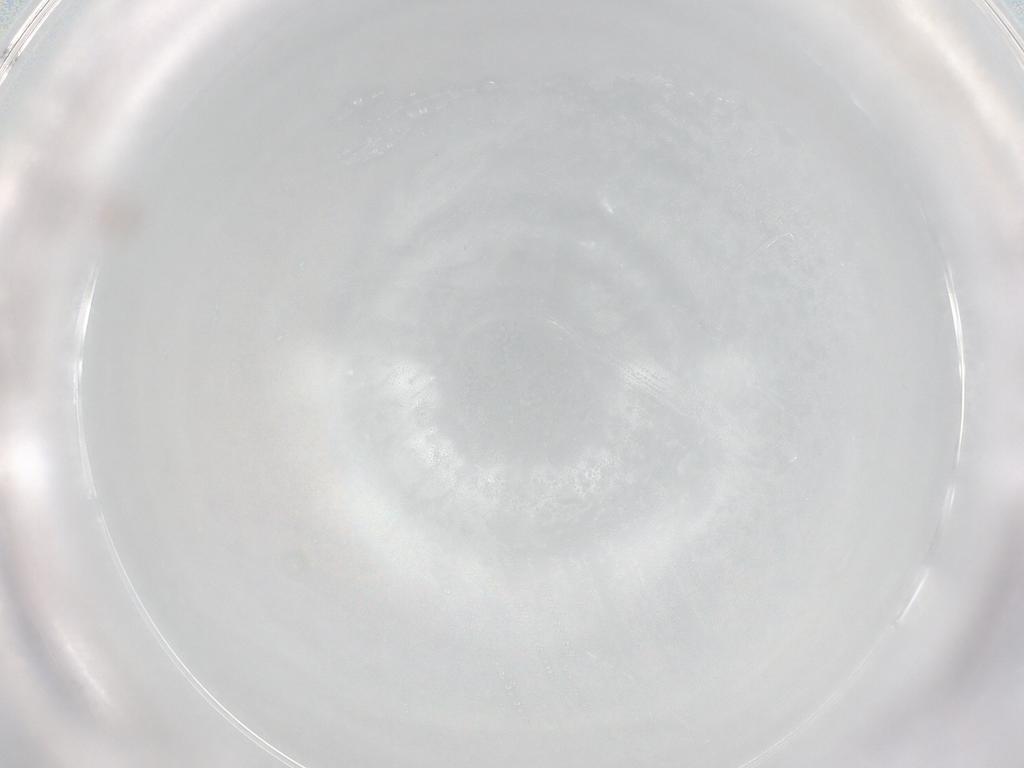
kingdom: Animalia
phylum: Arthropoda
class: Arachnida
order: Mesostigmata
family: Phytoseiidae
